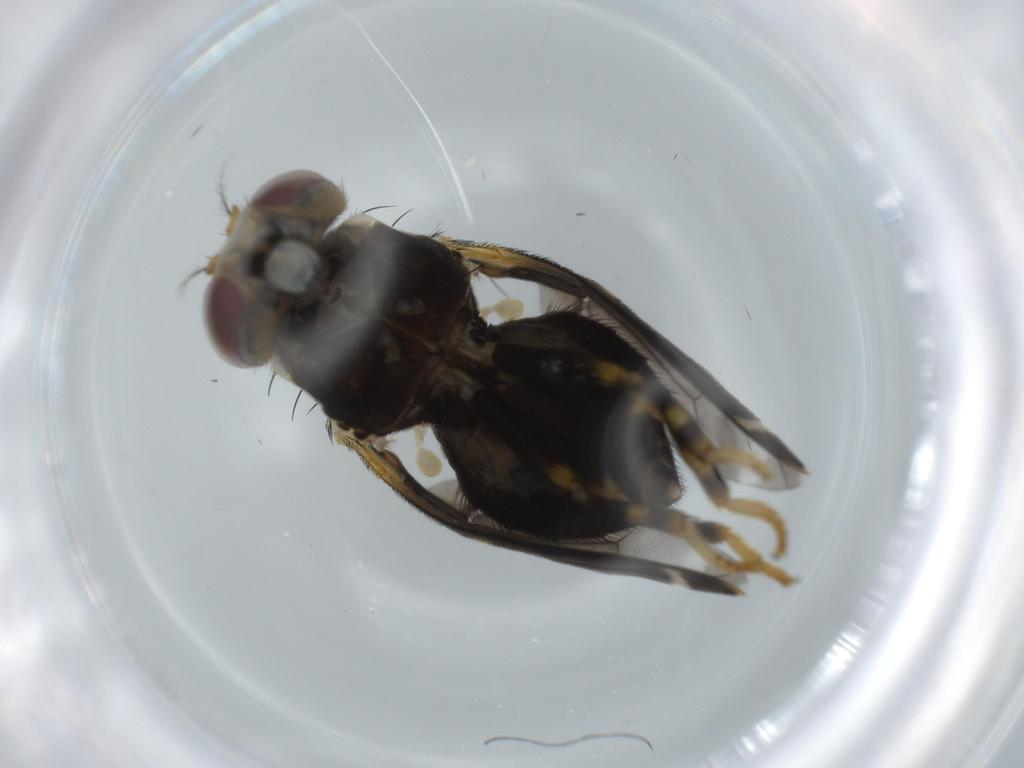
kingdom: Animalia
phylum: Arthropoda
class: Insecta
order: Diptera
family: Periscelididae
